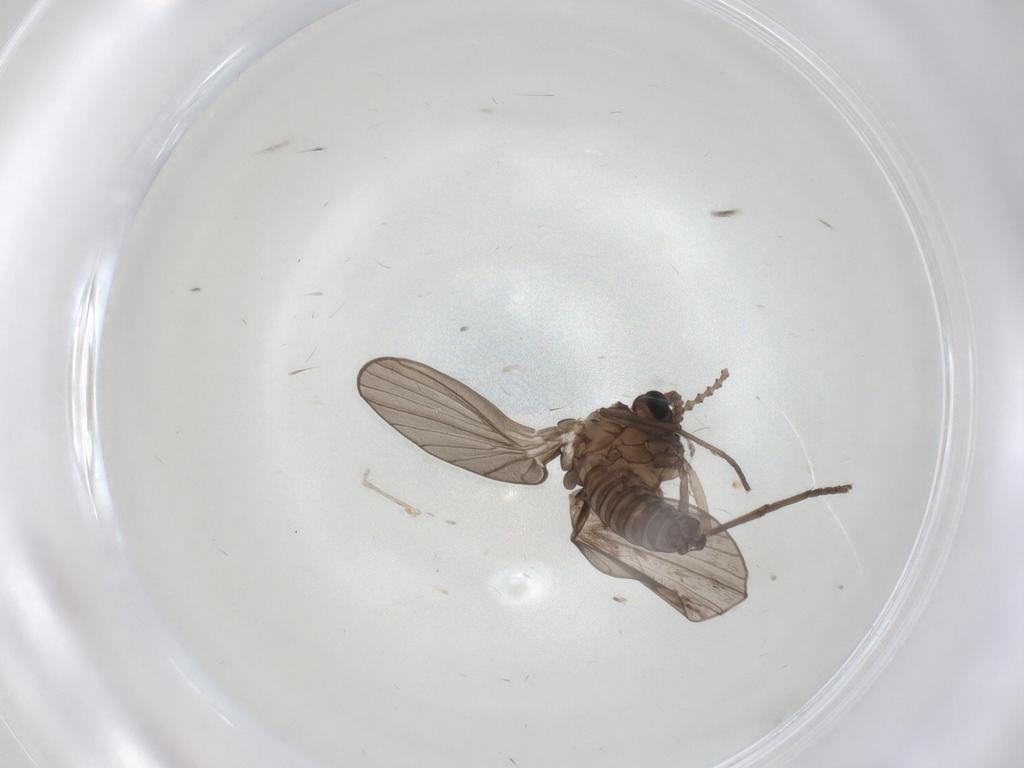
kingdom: Animalia
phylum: Arthropoda
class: Insecta
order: Diptera
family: Psychodidae
